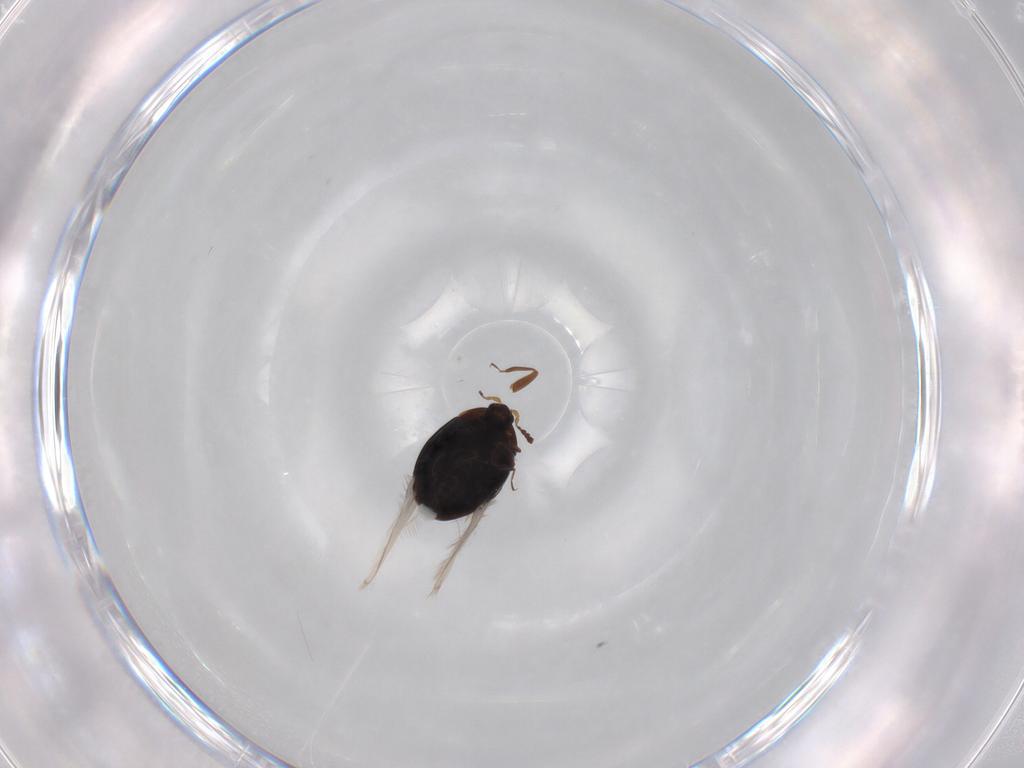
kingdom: Animalia
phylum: Arthropoda
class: Insecta
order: Coleoptera
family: Corylophidae
